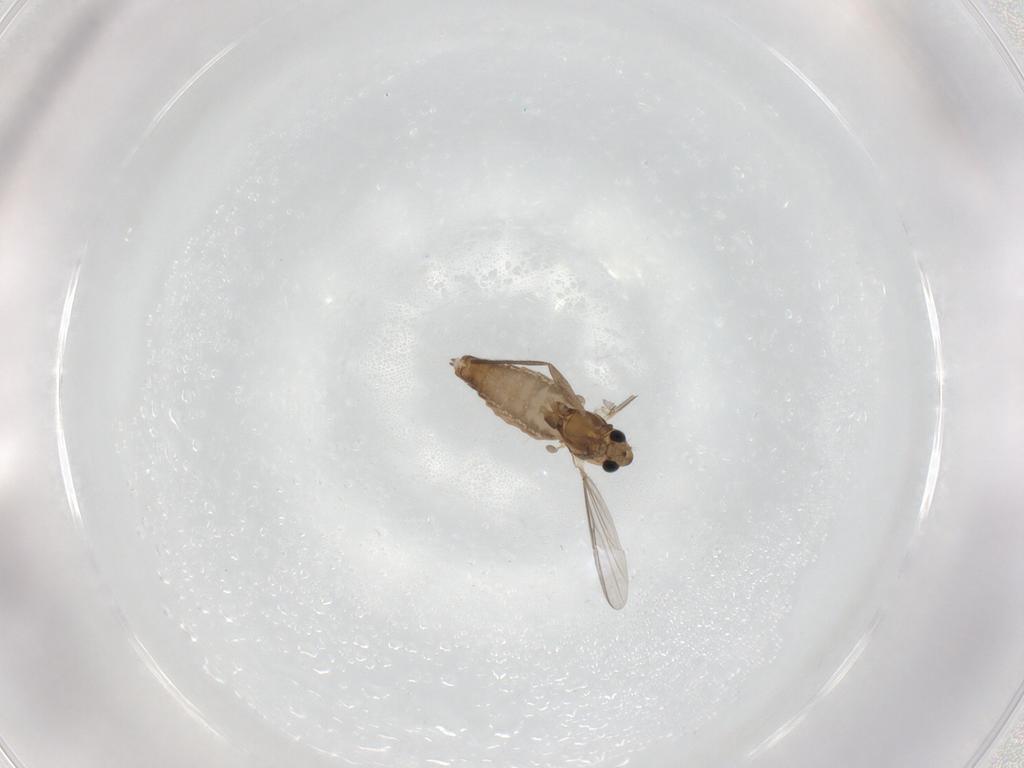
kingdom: Animalia
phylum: Arthropoda
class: Insecta
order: Diptera
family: Chironomidae
